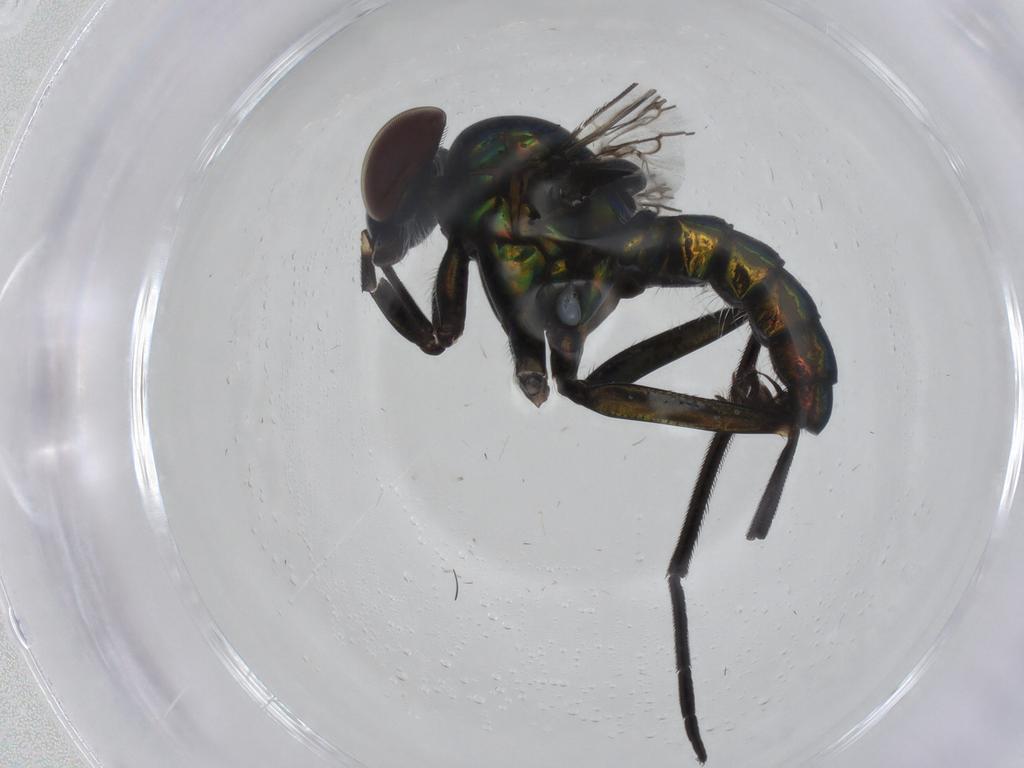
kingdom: Animalia
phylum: Arthropoda
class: Insecta
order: Diptera
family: Dolichopodidae
